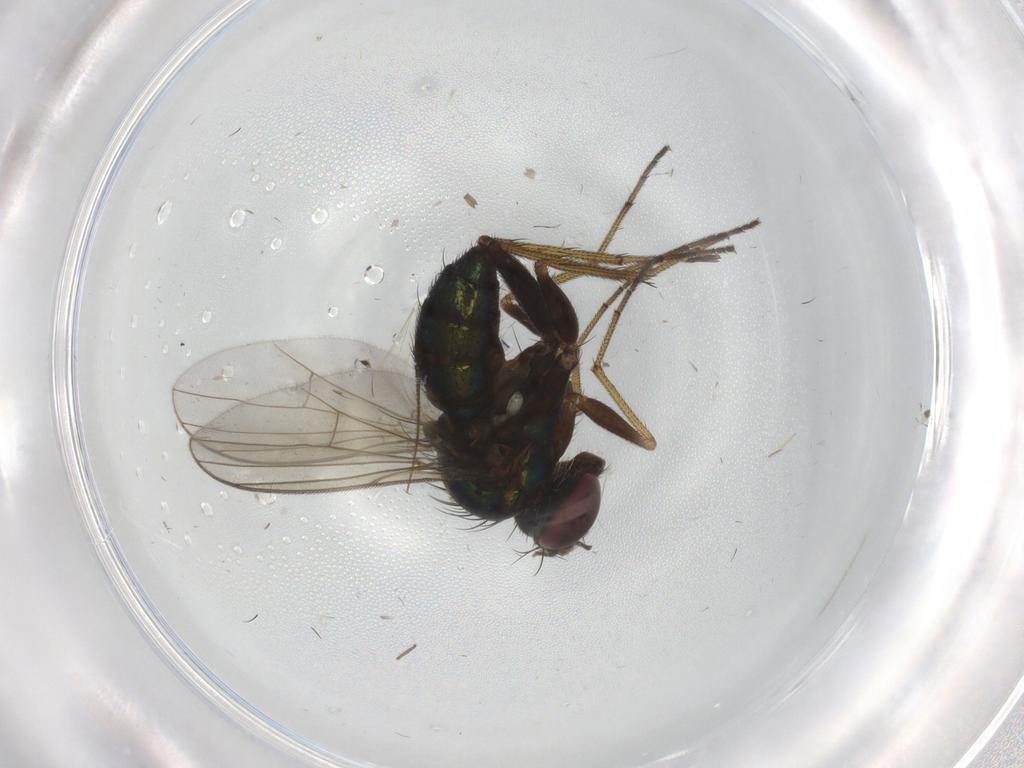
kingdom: Animalia
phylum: Arthropoda
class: Insecta
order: Diptera
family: Dolichopodidae
